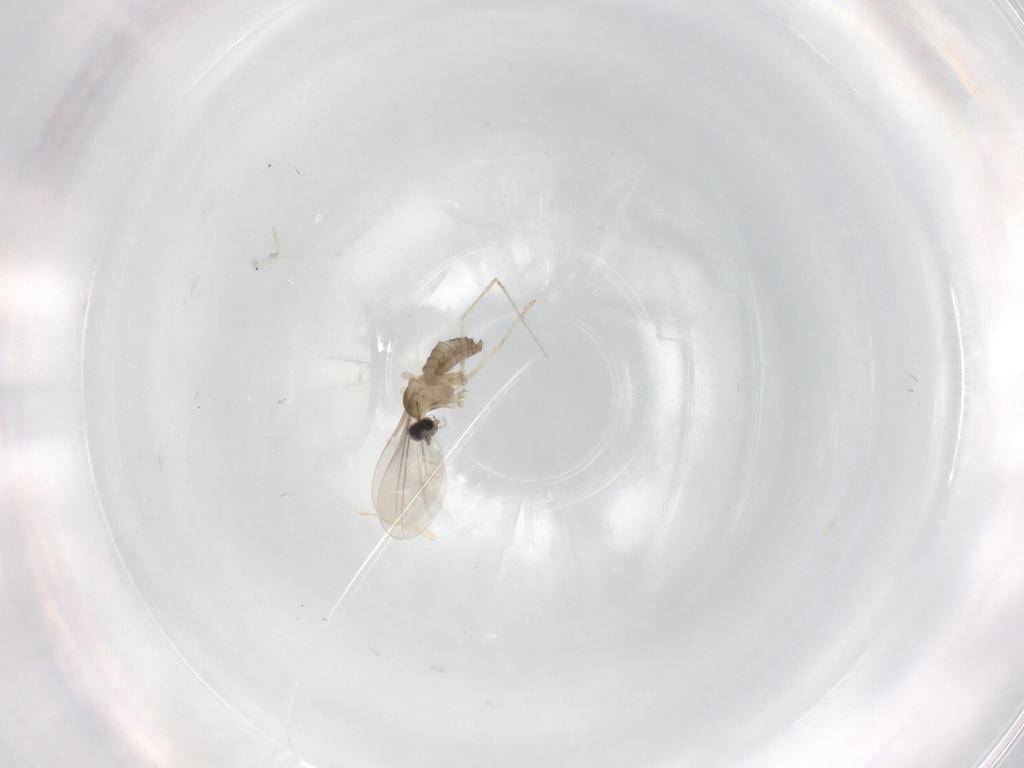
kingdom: Animalia
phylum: Arthropoda
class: Insecta
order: Diptera
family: Cecidomyiidae
